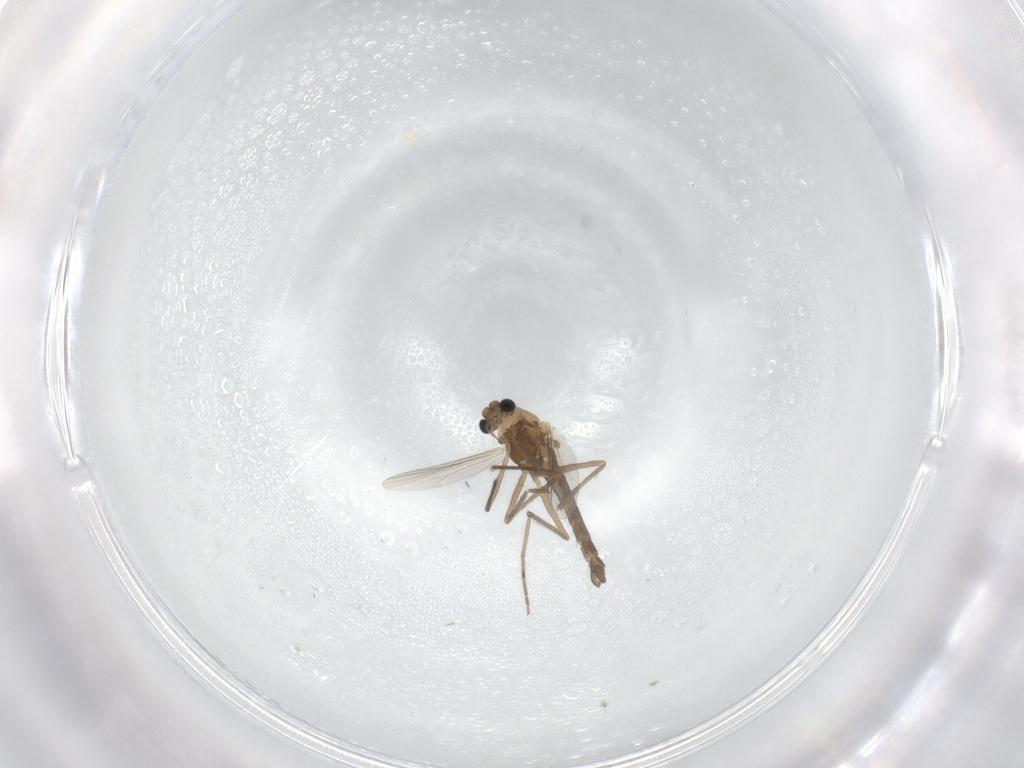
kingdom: Animalia
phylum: Arthropoda
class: Insecta
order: Diptera
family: Chironomidae
